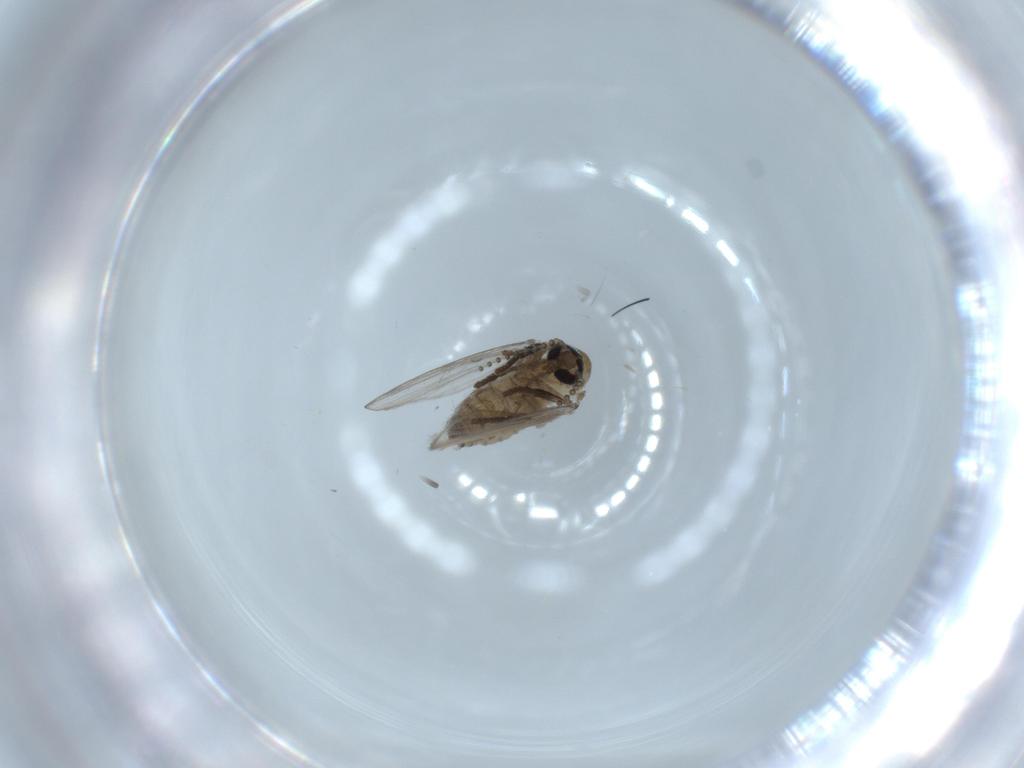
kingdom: Animalia
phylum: Arthropoda
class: Insecta
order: Diptera
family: Psychodidae
